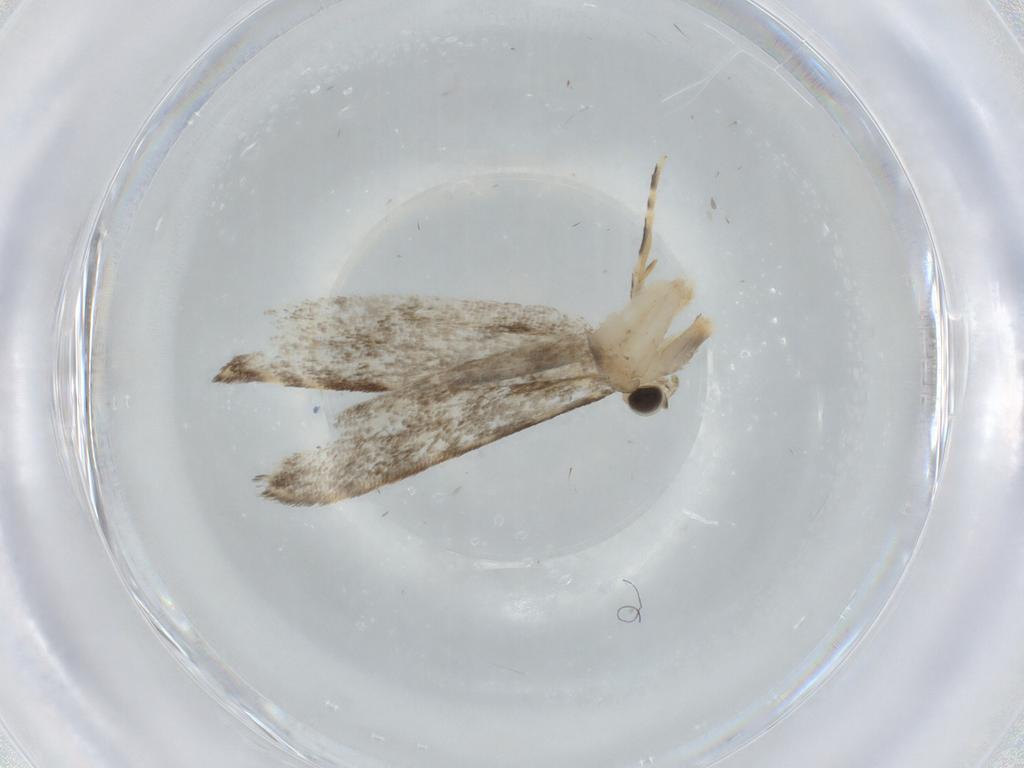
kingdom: Animalia
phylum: Arthropoda
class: Insecta
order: Lepidoptera
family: Tineidae
